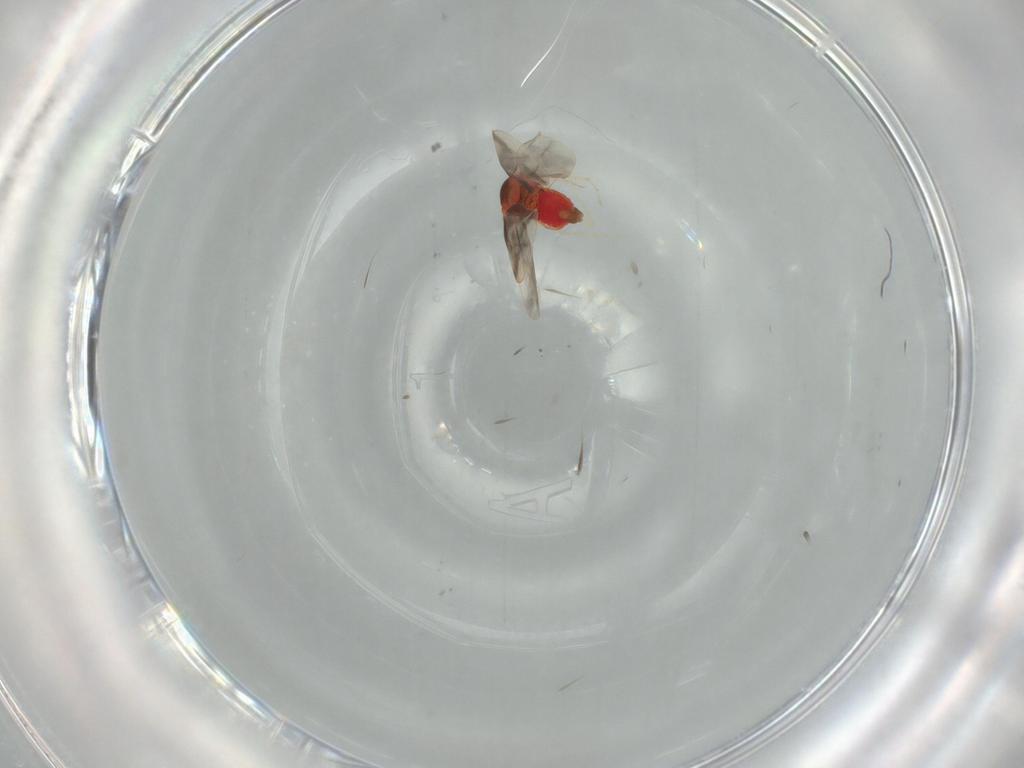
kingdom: Animalia
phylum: Arthropoda
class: Insecta
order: Hemiptera
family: Aleyrodidae
